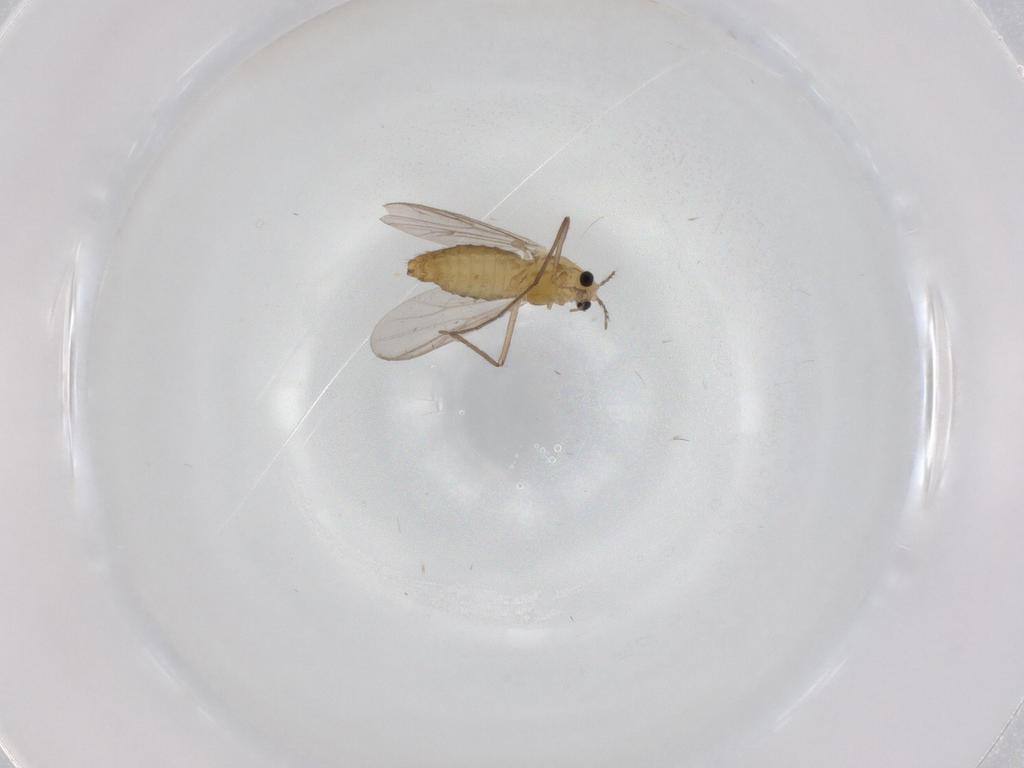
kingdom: Animalia
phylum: Arthropoda
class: Insecta
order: Diptera
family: Chironomidae
